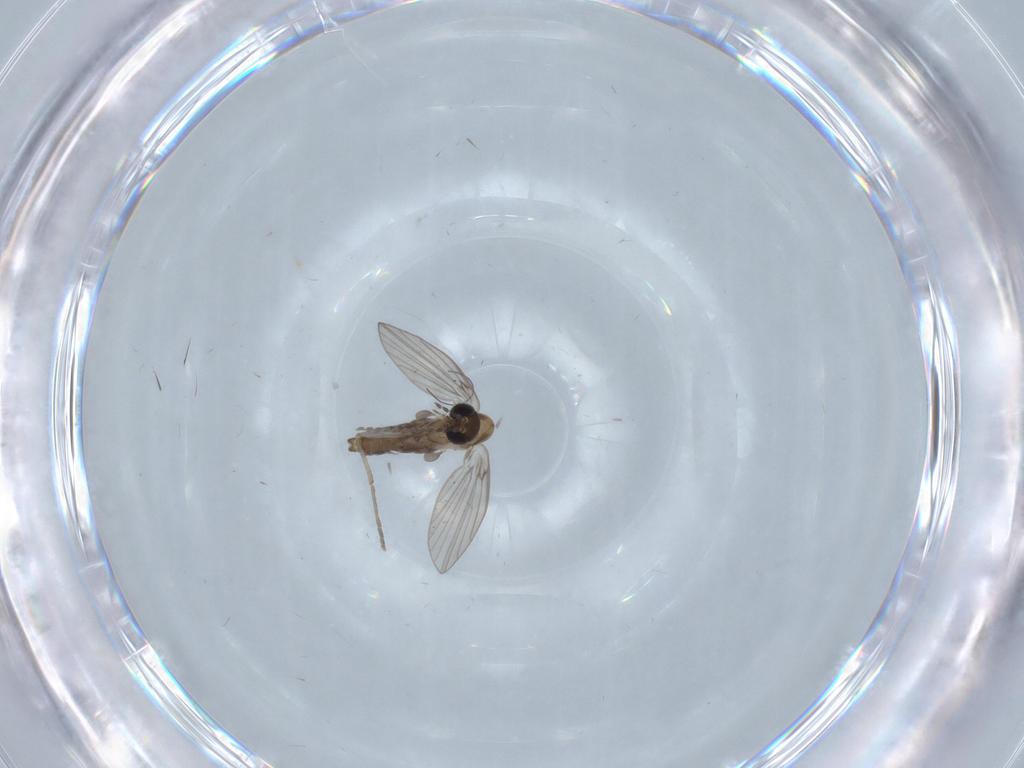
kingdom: Animalia
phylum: Arthropoda
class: Insecta
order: Diptera
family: Psychodidae
